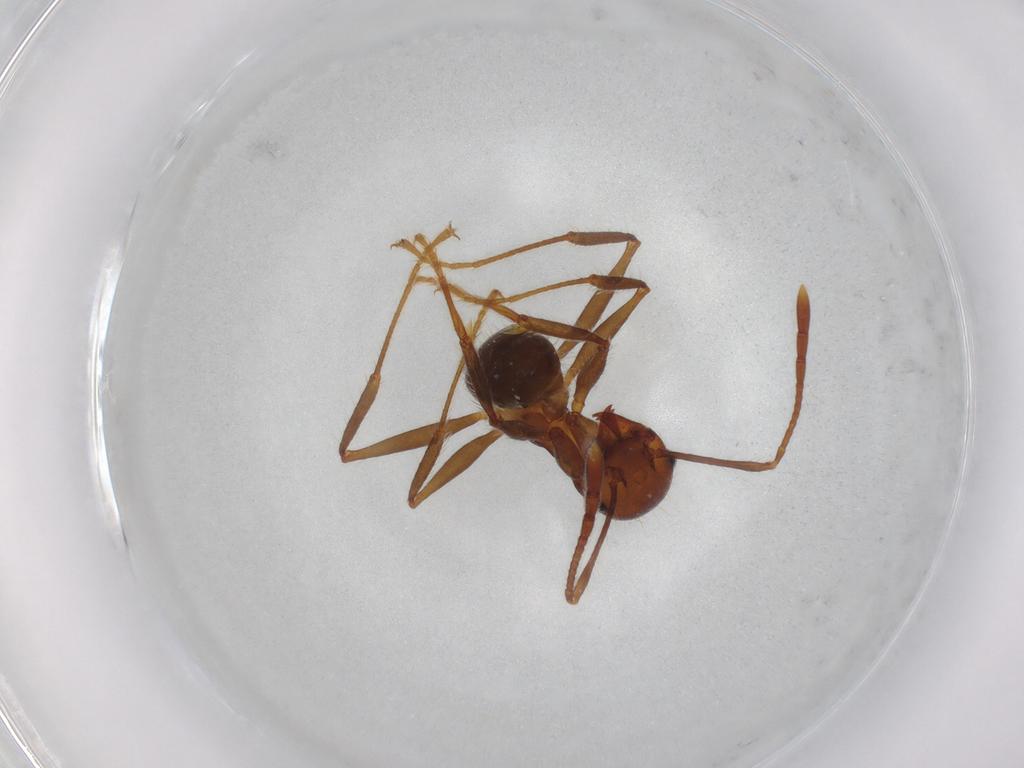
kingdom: Animalia
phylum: Arthropoda
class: Insecta
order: Hymenoptera
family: Formicidae
